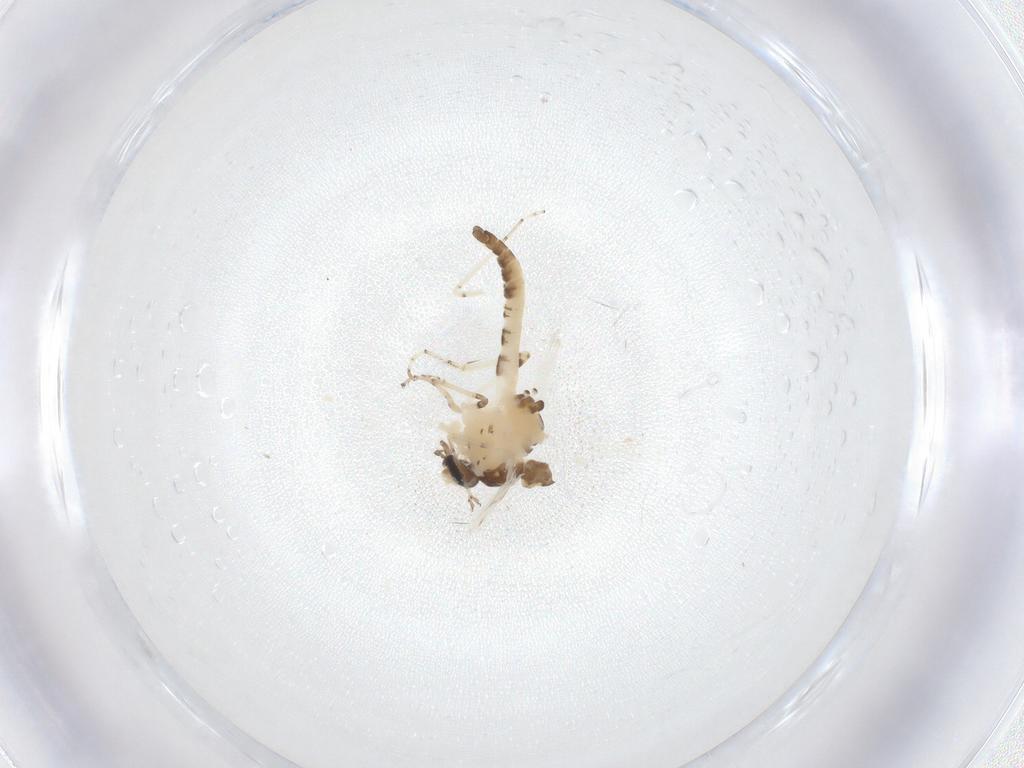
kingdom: Animalia
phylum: Arthropoda
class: Insecta
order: Diptera
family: Ceratopogonidae
